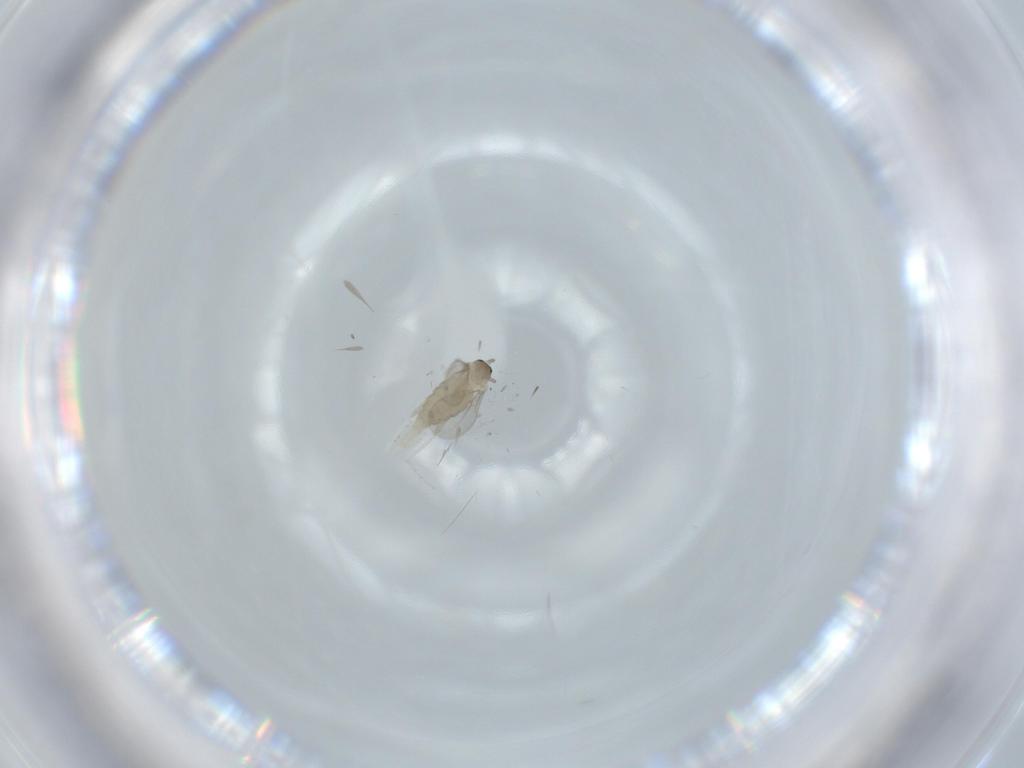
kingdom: Animalia
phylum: Arthropoda
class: Insecta
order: Diptera
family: Cecidomyiidae
